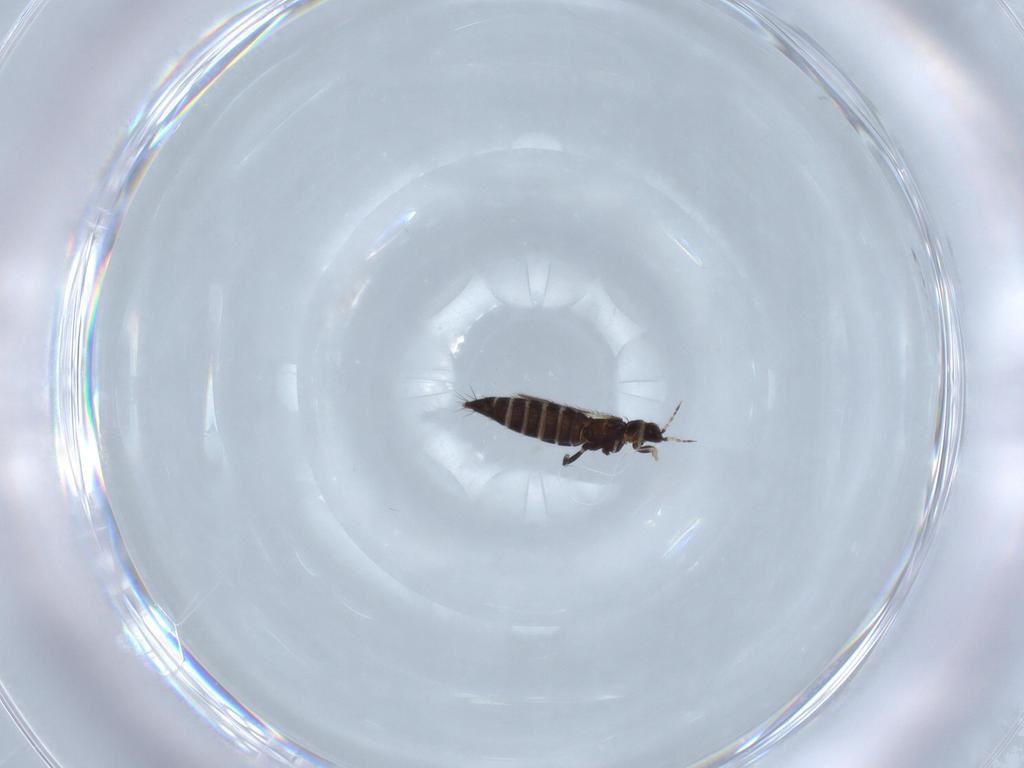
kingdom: Animalia
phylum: Arthropoda
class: Insecta
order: Thysanoptera
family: Thripidae
